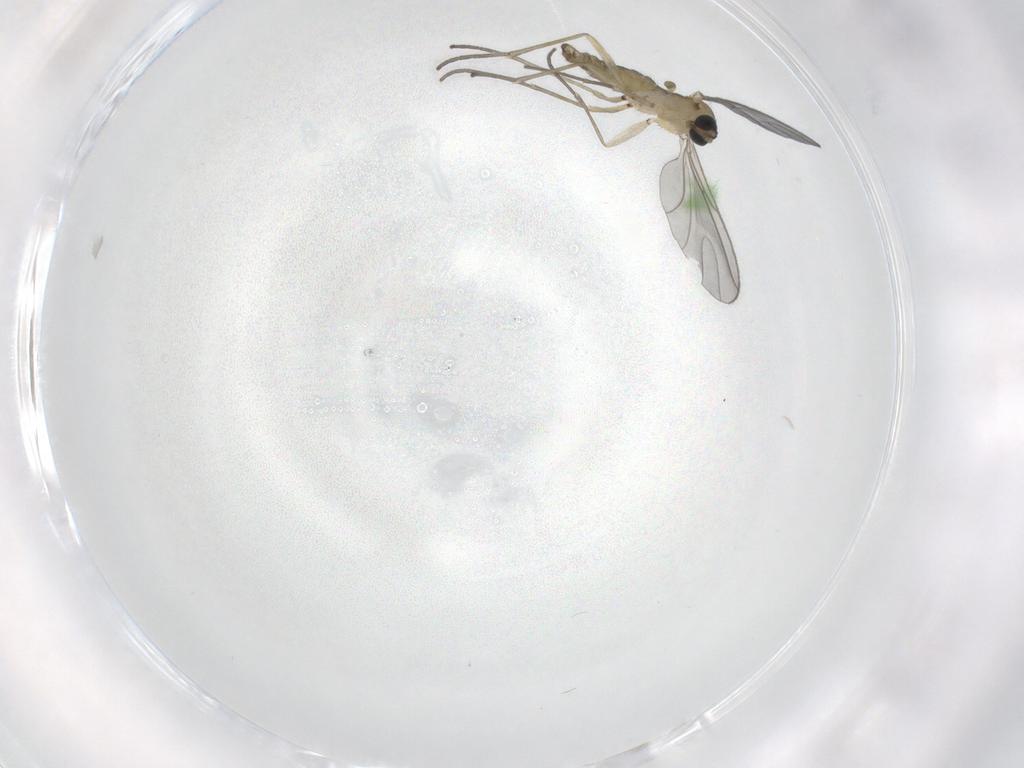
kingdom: Animalia
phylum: Arthropoda
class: Insecta
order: Diptera
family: Sciaridae
